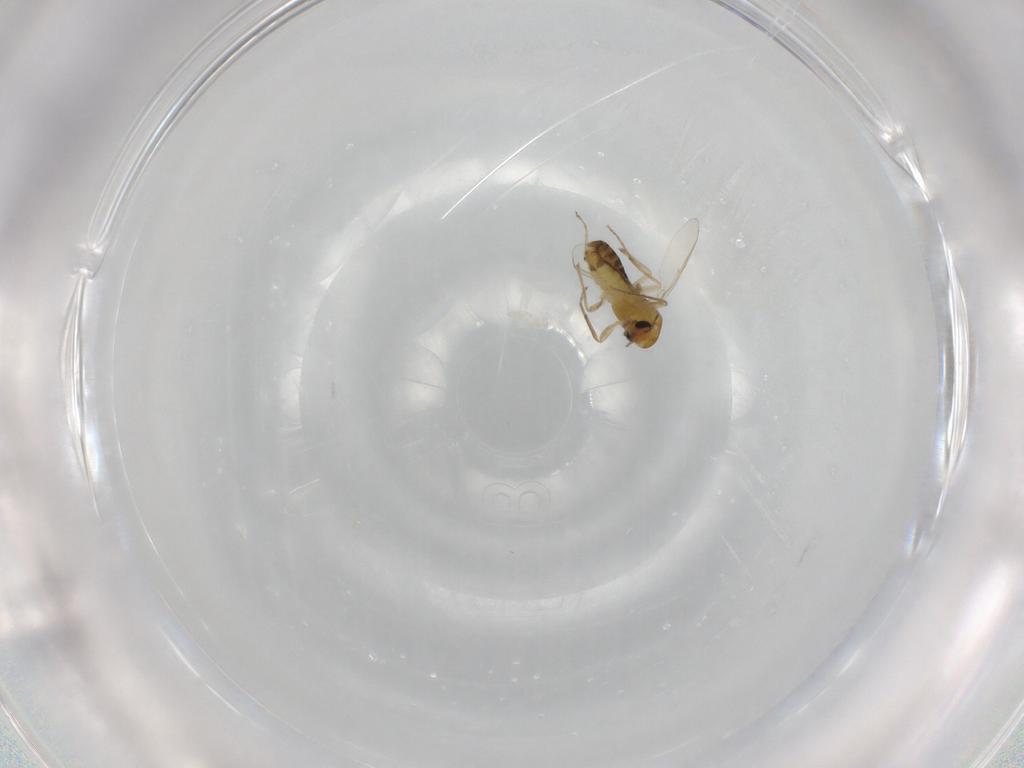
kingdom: Animalia
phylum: Arthropoda
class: Insecta
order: Diptera
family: Chironomidae
